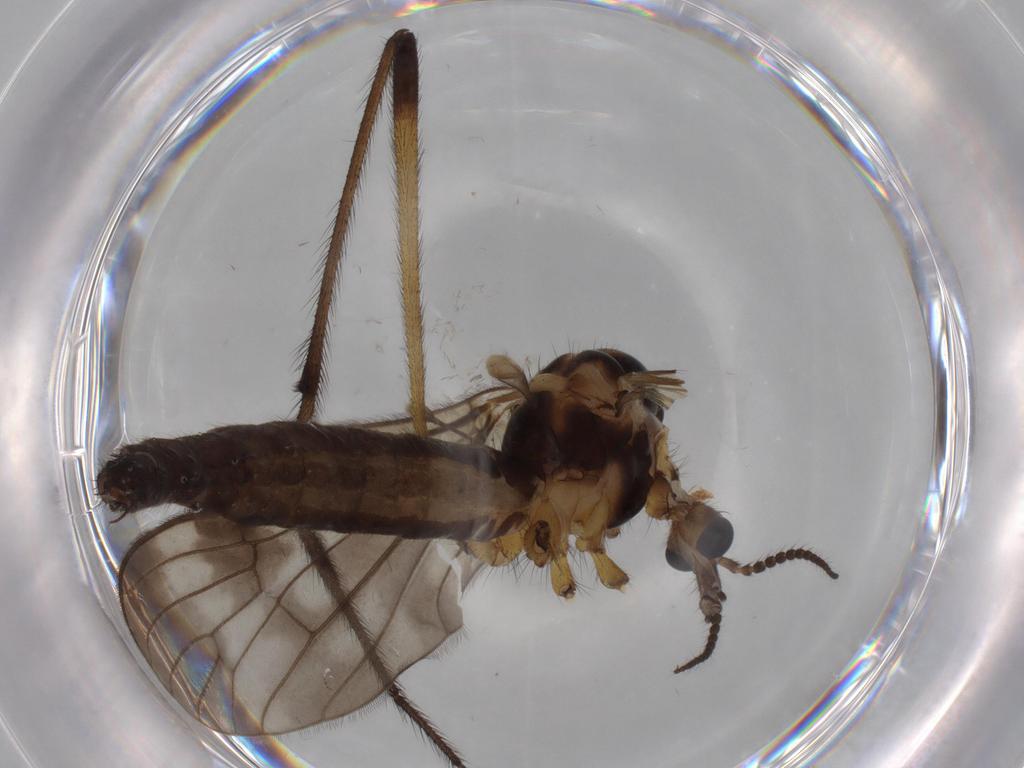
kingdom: Animalia
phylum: Arthropoda
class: Insecta
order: Diptera
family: Limoniidae
